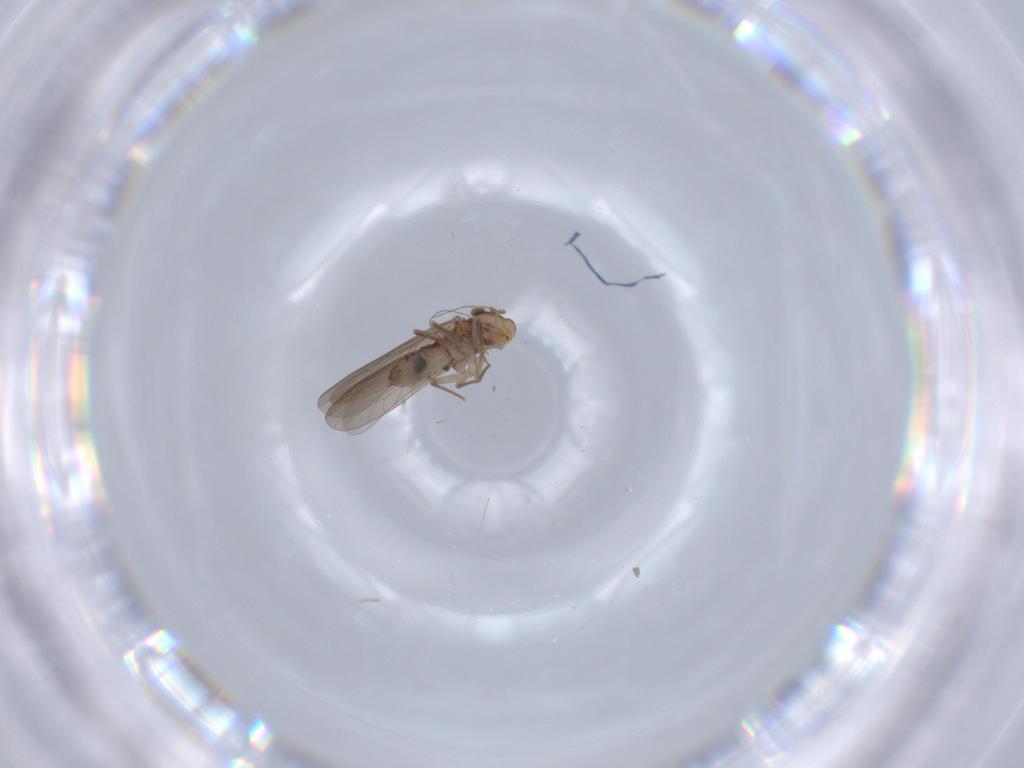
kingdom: Animalia
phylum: Arthropoda
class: Insecta
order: Psocodea
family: Lepidopsocidae
